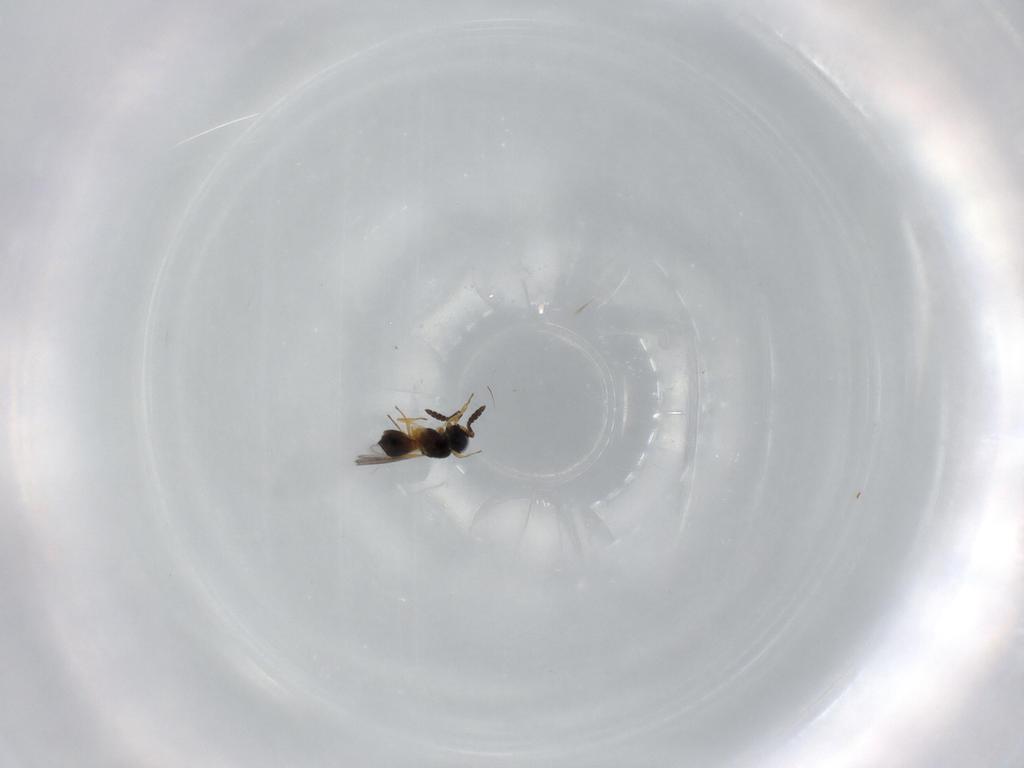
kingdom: Animalia
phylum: Arthropoda
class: Insecta
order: Hymenoptera
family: Scelionidae
